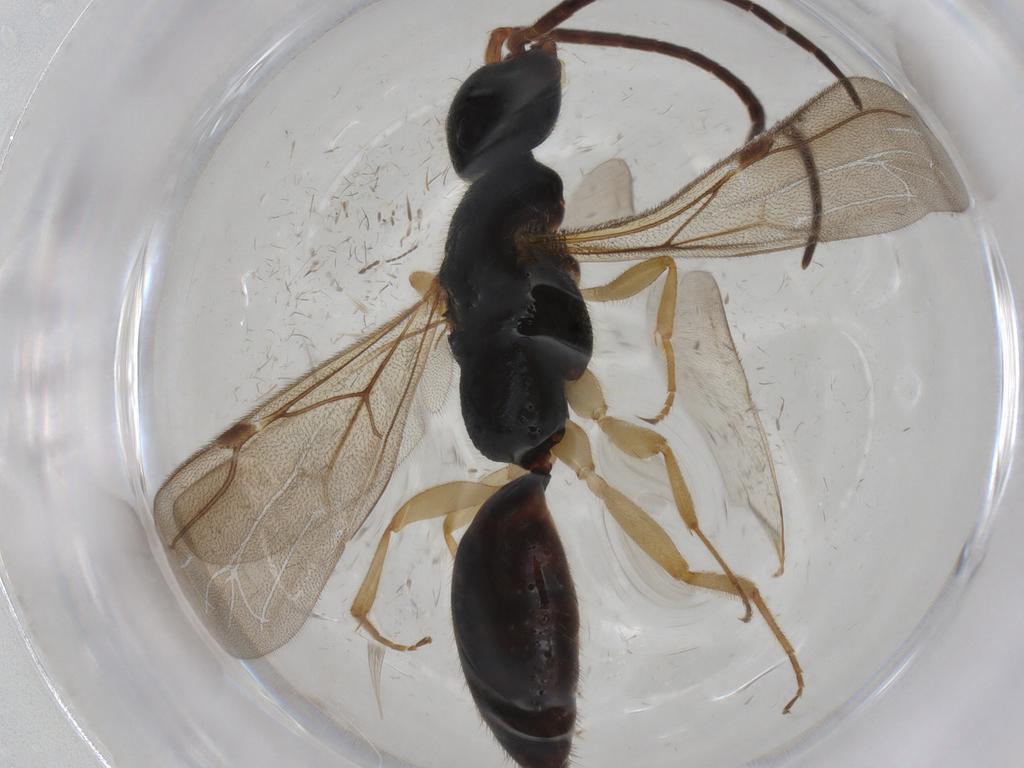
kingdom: Animalia
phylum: Arthropoda
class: Insecta
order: Hymenoptera
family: Bethylidae
